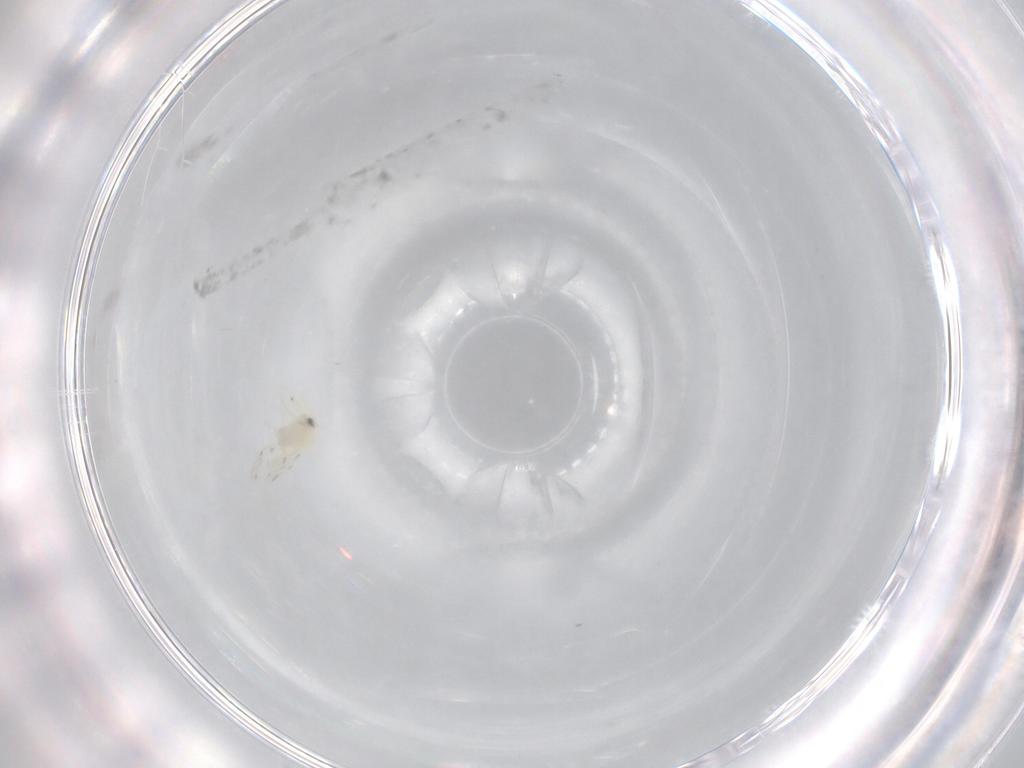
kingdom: Animalia
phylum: Arthropoda
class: Insecta
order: Hemiptera
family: Aleyrodidae
